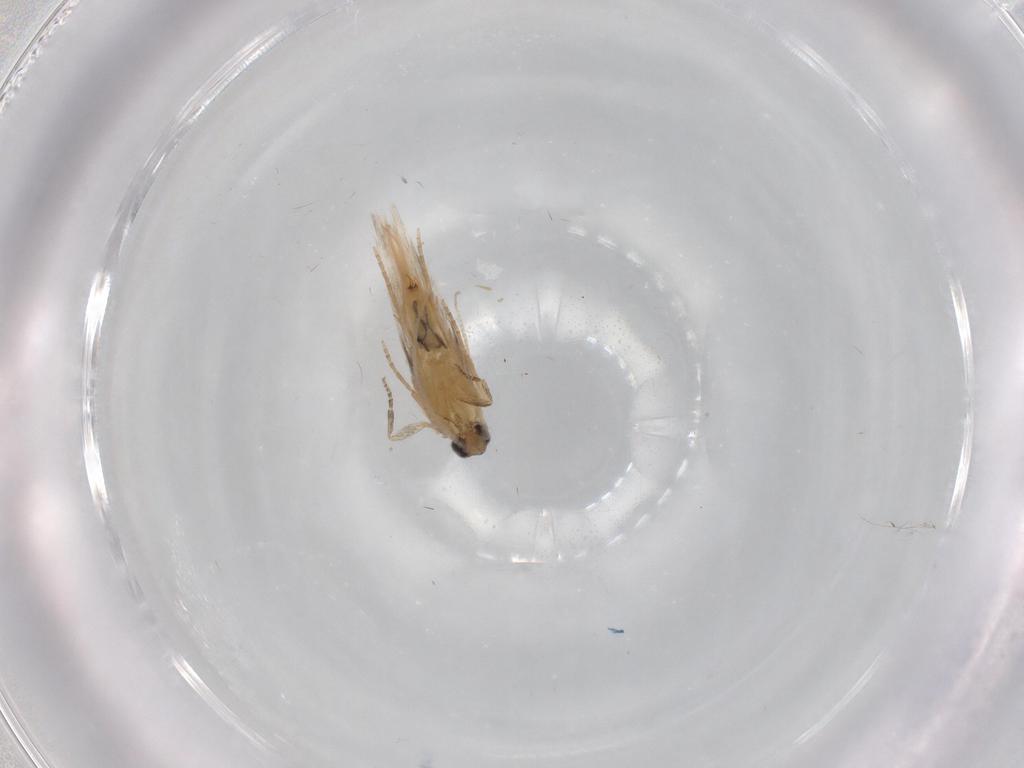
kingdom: Animalia
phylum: Arthropoda
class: Insecta
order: Trichoptera
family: Hydroptilidae
